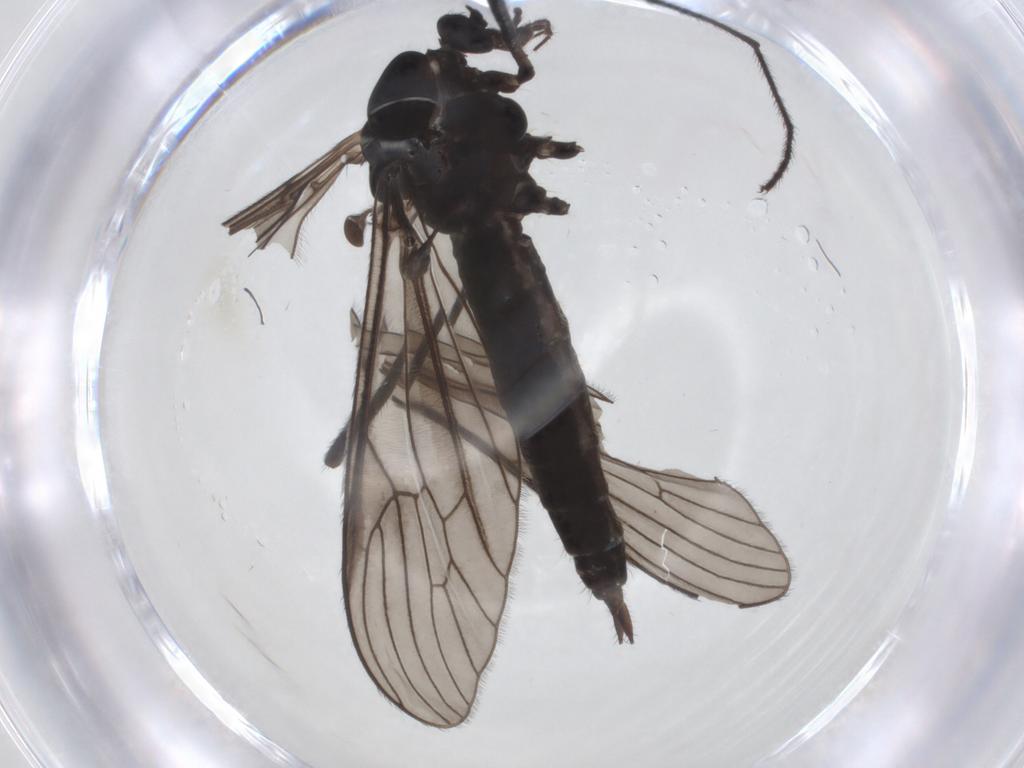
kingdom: Animalia
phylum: Arthropoda
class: Insecta
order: Diptera
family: Limoniidae
